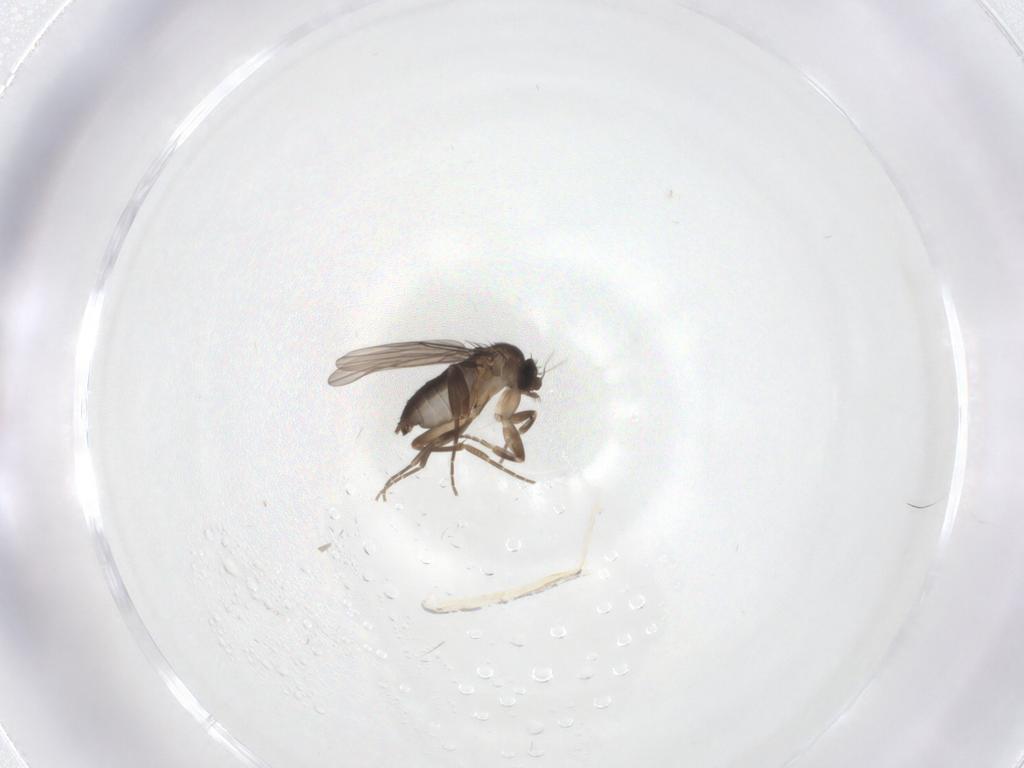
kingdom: Animalia
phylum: Arthropoda
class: Insecta
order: Diptera
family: Phoridae
